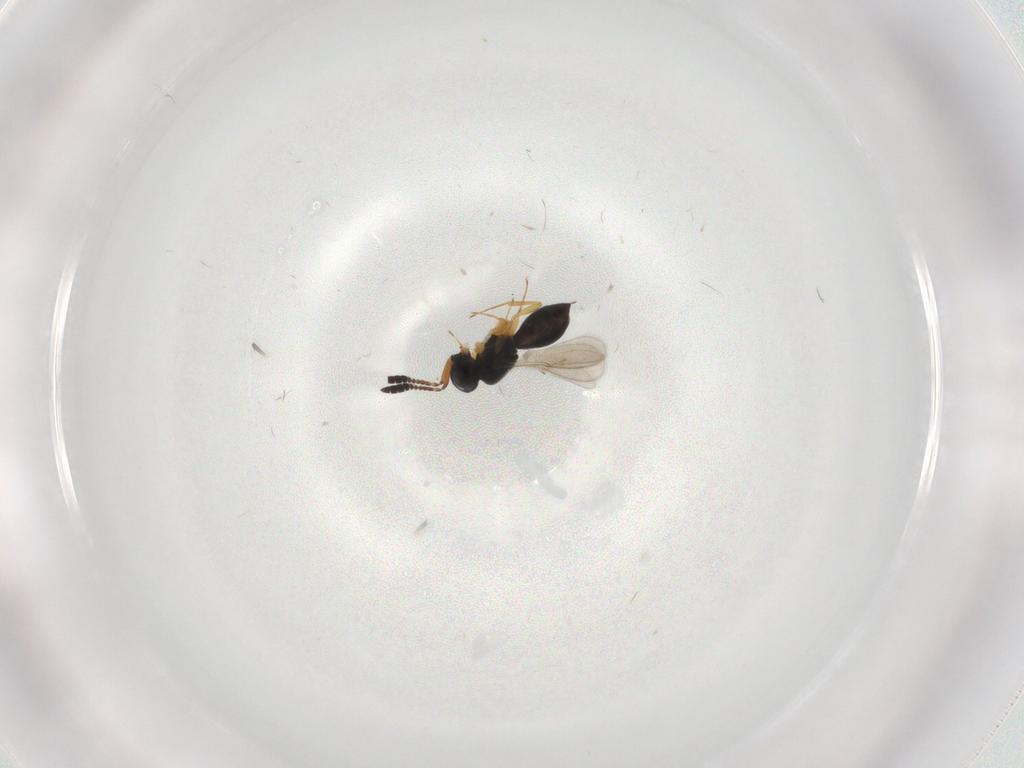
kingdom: Animalia
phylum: Arthropoda
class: Insecta
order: Hymenoptera
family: Scelionidae
